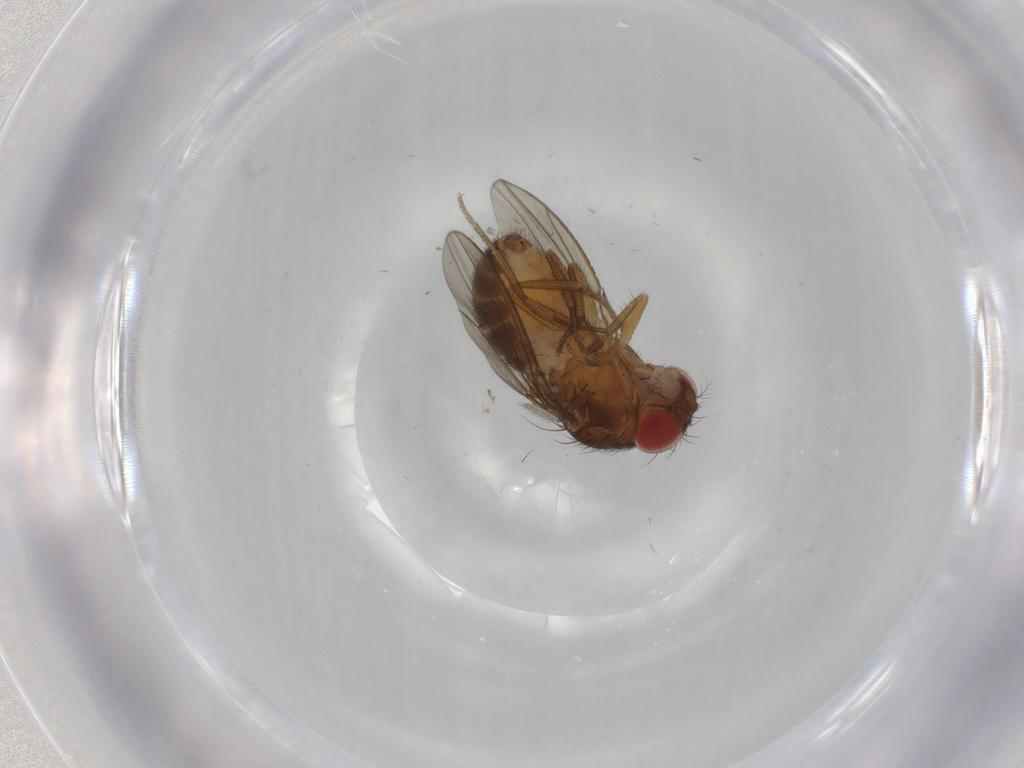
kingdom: Animalia
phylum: Arthropoda
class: Insecta
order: Diptera
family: Dolichopodidae
